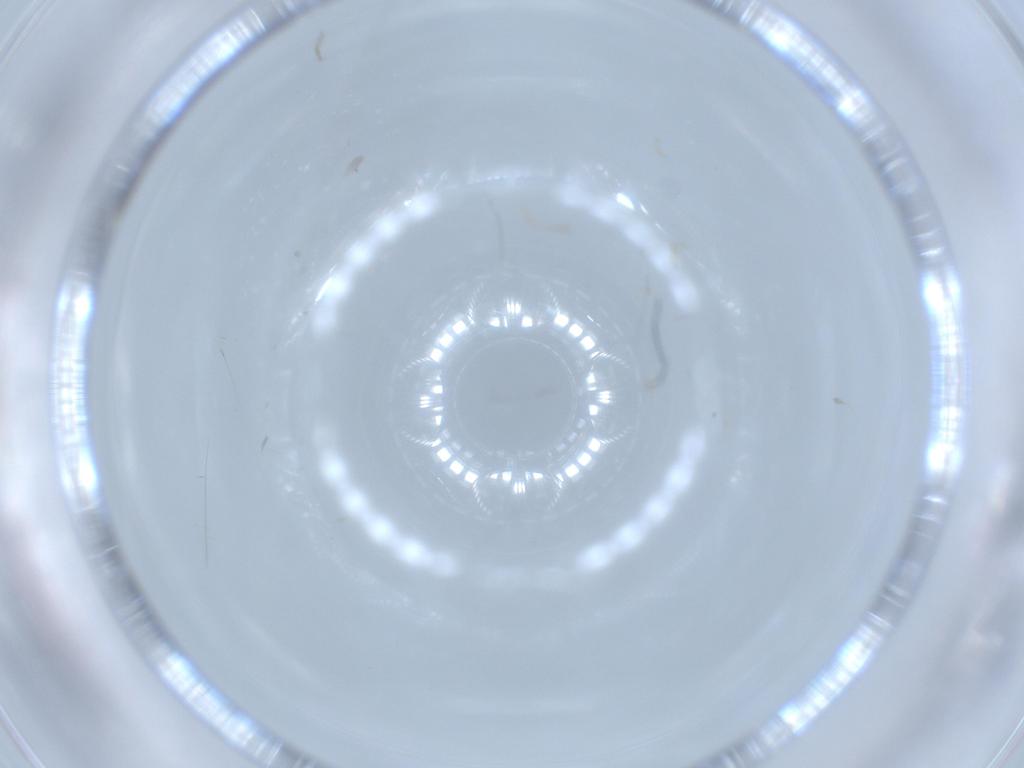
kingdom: Animalia
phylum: Arthropoda
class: Insecta
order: Diptera
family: Dolichopodidae
